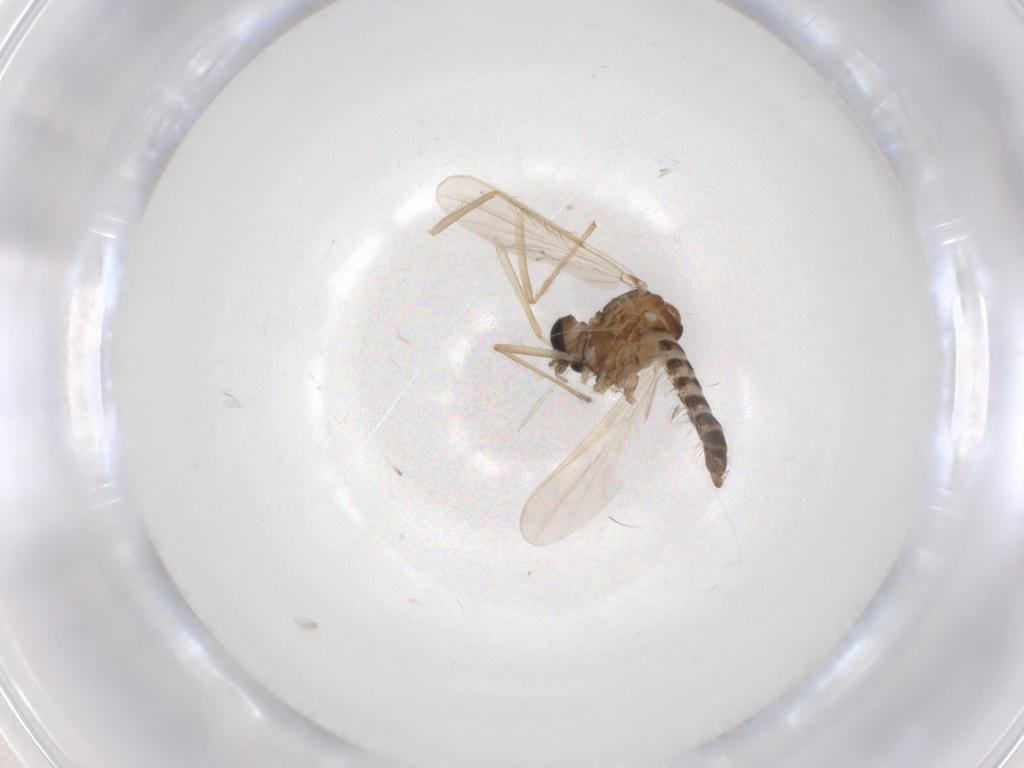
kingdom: Animalia
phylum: Arthropoda
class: Insecta
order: Diptera
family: Chironomidae
